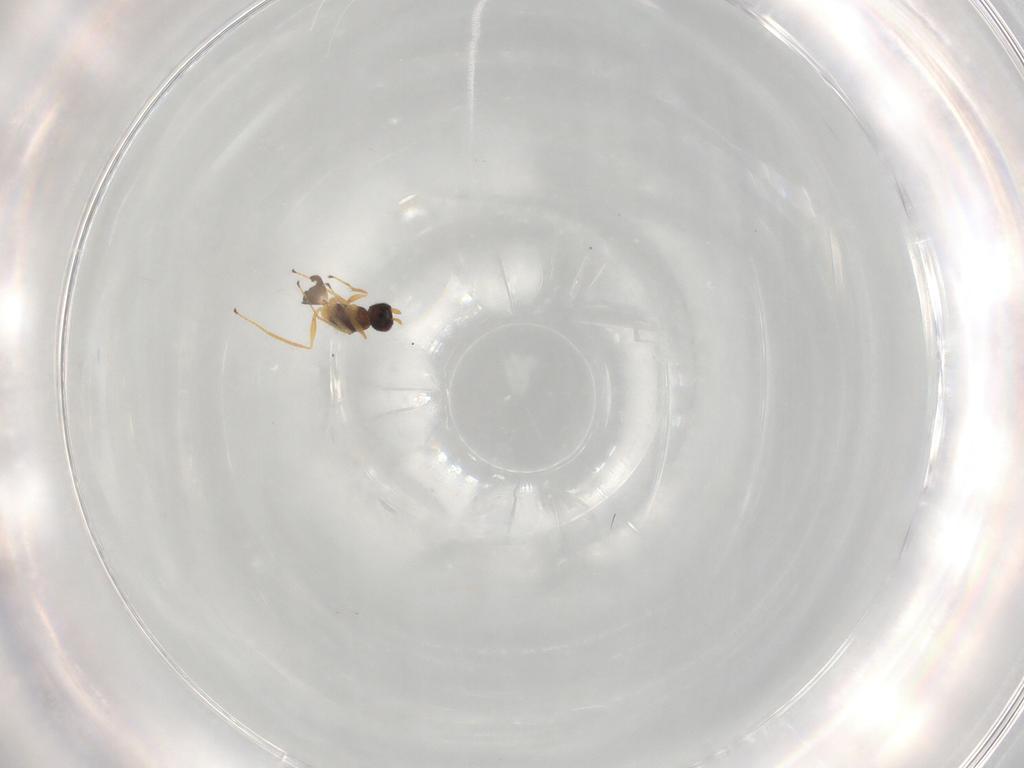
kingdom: Animalia
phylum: Arthropoda
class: Insecta
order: Hymenoptera
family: Mymaridae
